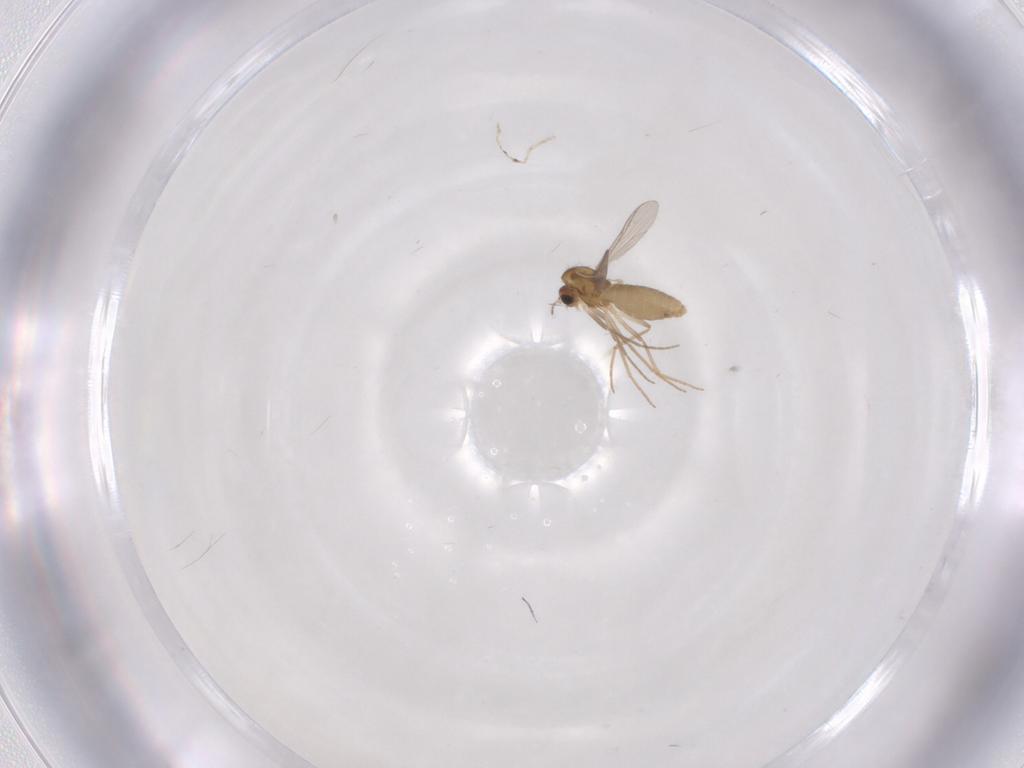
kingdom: Animalia
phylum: Arthropoda
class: Insecta
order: Diptera
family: Chironomidae
